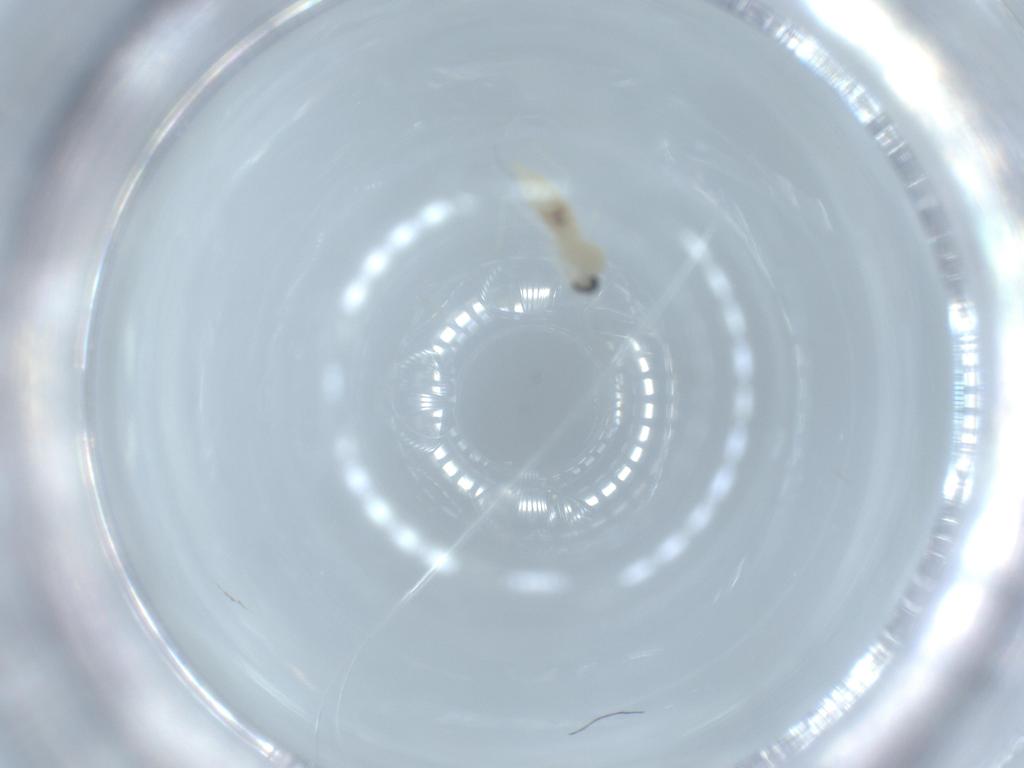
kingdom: Animalia
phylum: Arthropoda
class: Insecta
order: Diptera
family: Cecidomyiidae
